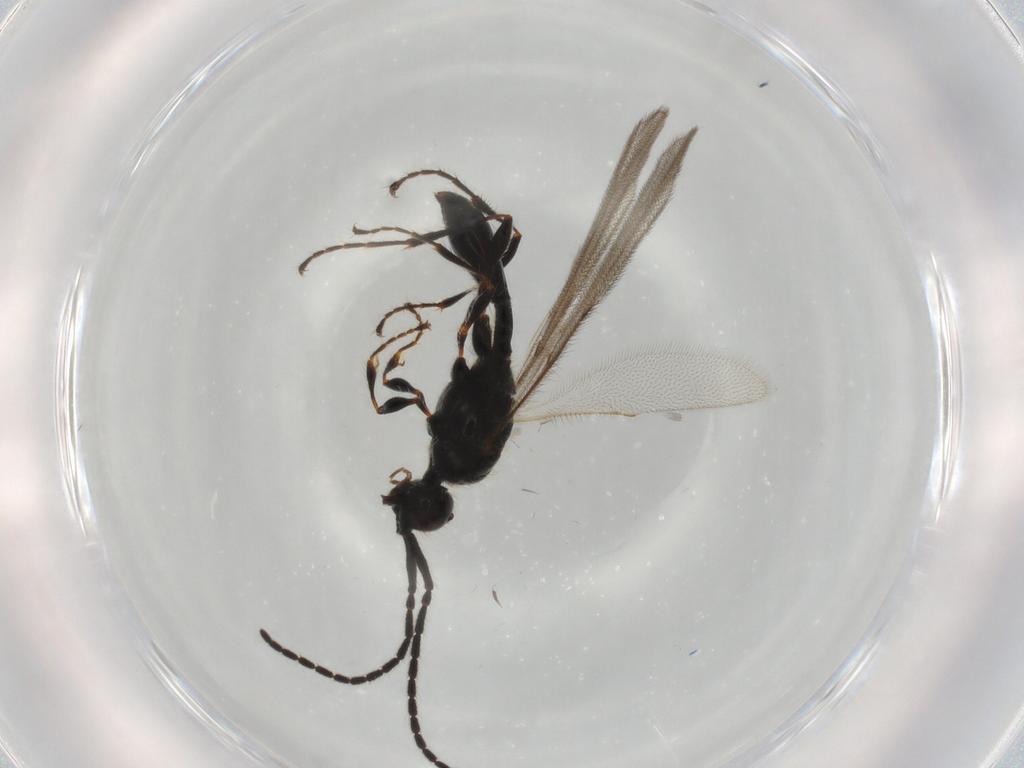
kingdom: Animalia
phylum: Arthropoda
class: Insecta
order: Hymenoptera
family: Diapriidae
